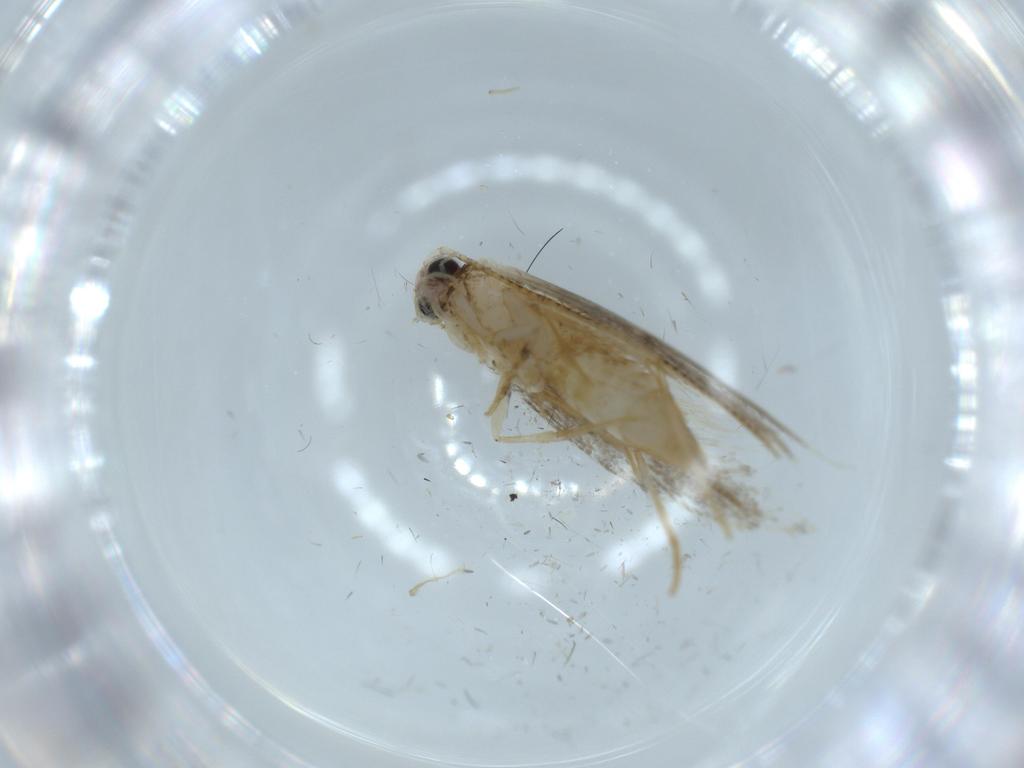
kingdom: Animalia
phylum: Arthropoda
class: Insecta
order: Lepidoptera
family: Tineidae
